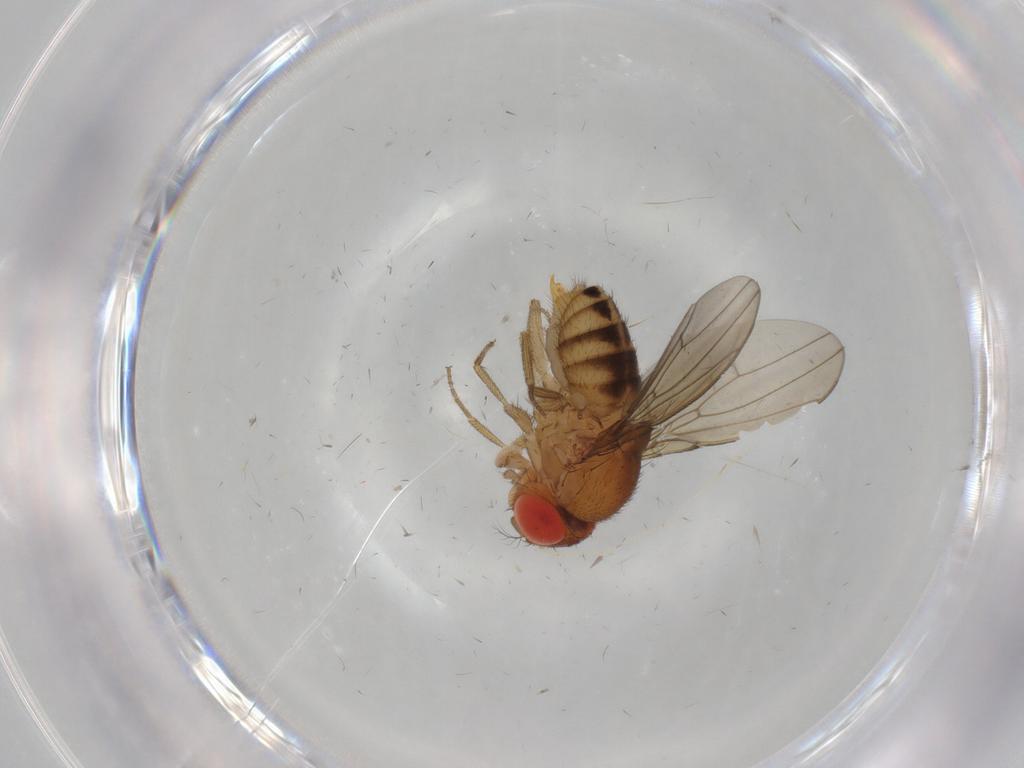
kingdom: Animalia
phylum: Arthropoda
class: Insecta
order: Diptera
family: Drosophilidae
